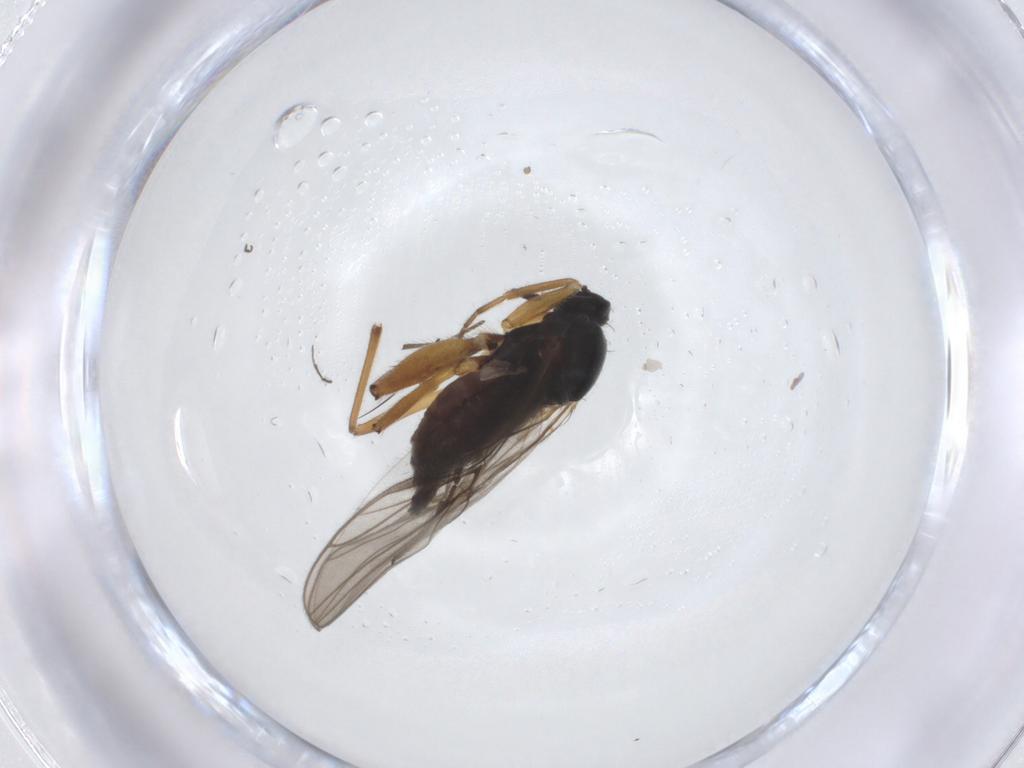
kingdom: Animalia
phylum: Arthropoda
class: Insecta
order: Diptera
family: Hybotidae
